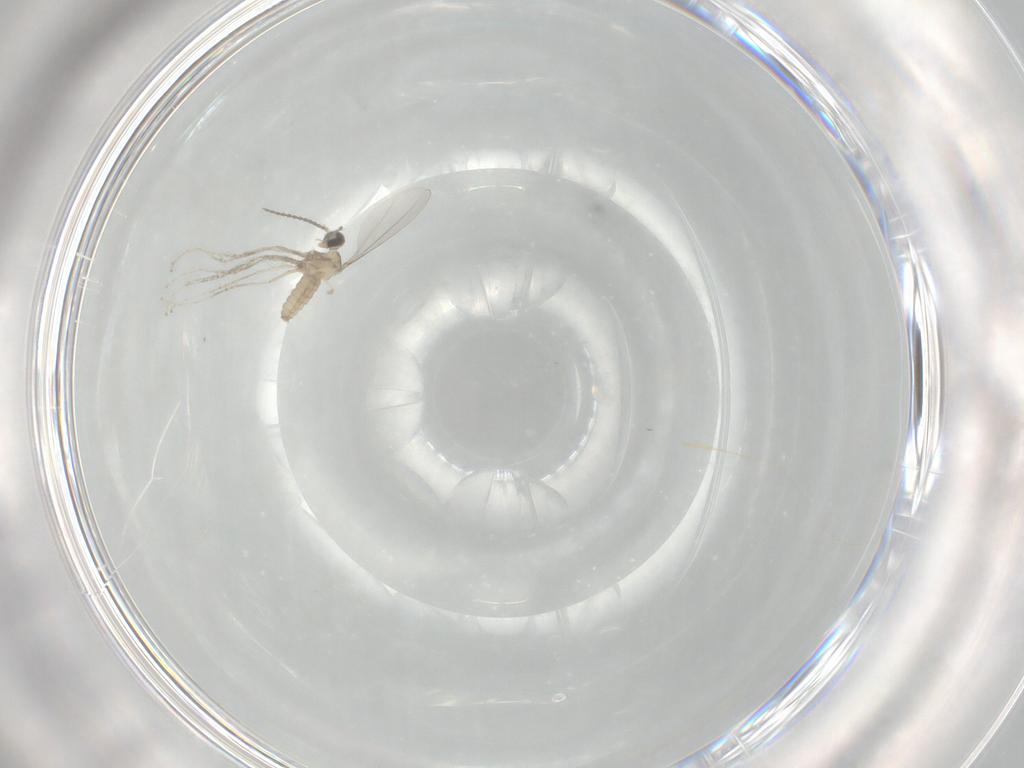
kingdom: Animalia
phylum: Arthropoda
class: Insecta
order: Diptera
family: Cecidomyiidae
